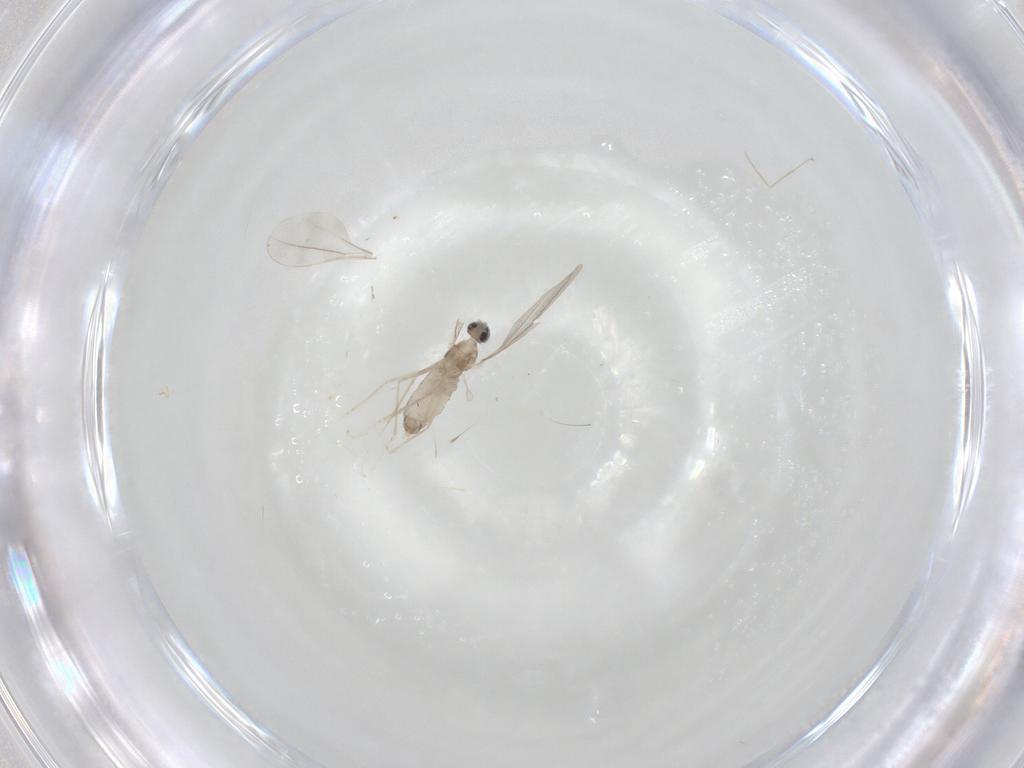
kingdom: Animalia
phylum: Arthropoda
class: Insecta
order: Diptera
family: Cecidomyiidae
